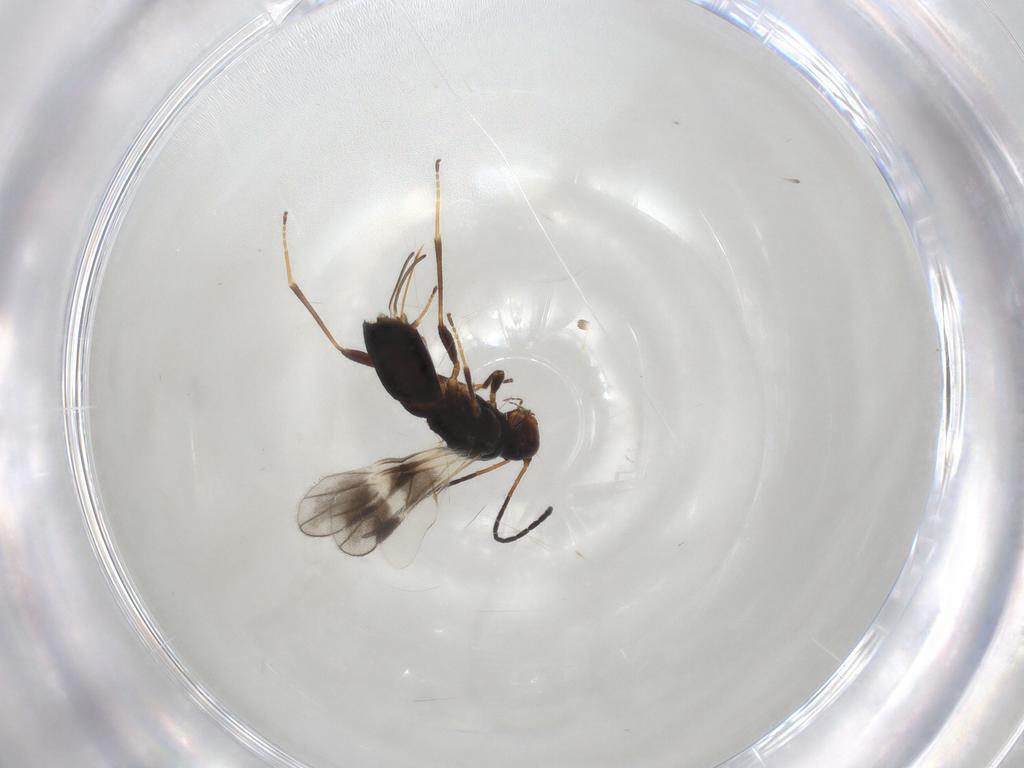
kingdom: Animalia
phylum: Arthropoda
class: Insecta
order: Hymenoptera
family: Braconidae
